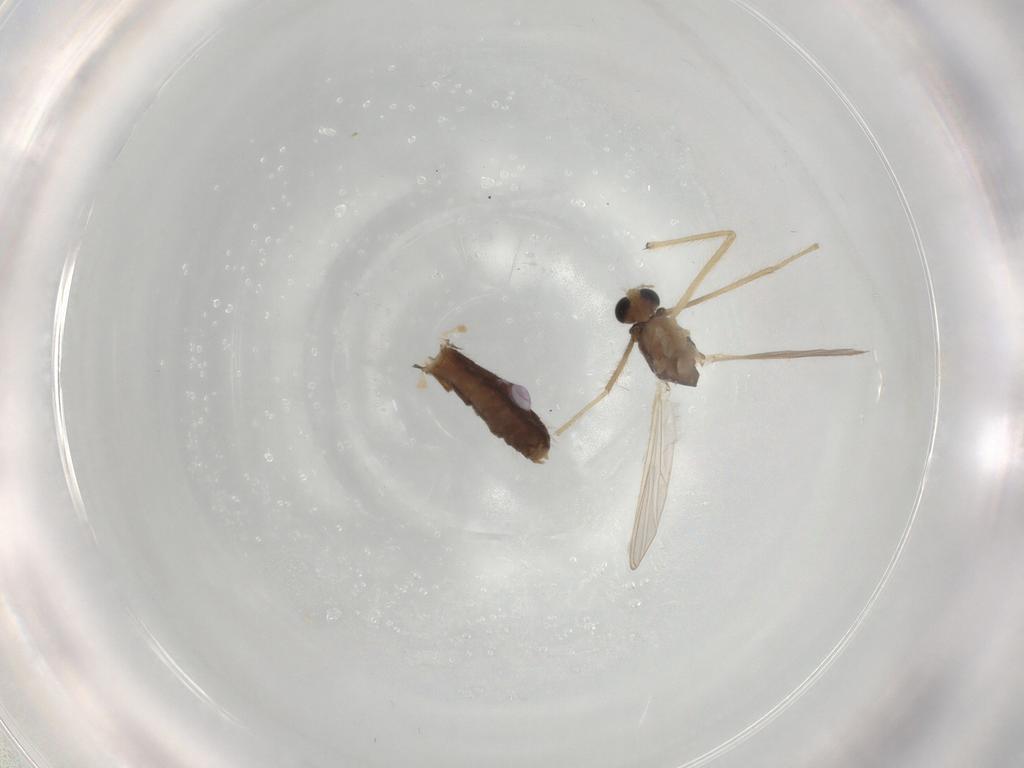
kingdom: Animalia
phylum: Arthropoda
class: Insecta
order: Diptera
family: Chironomidae
